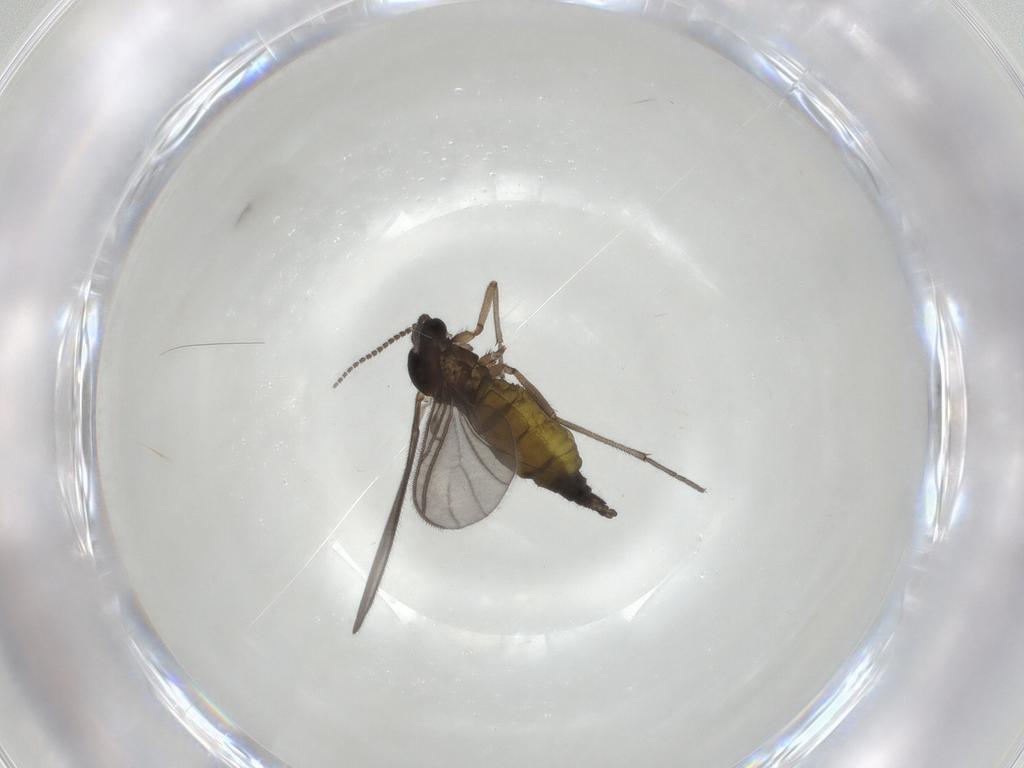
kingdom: Animalia
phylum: Arthropoda
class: Insecta
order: Diptera
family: Sciaridae
